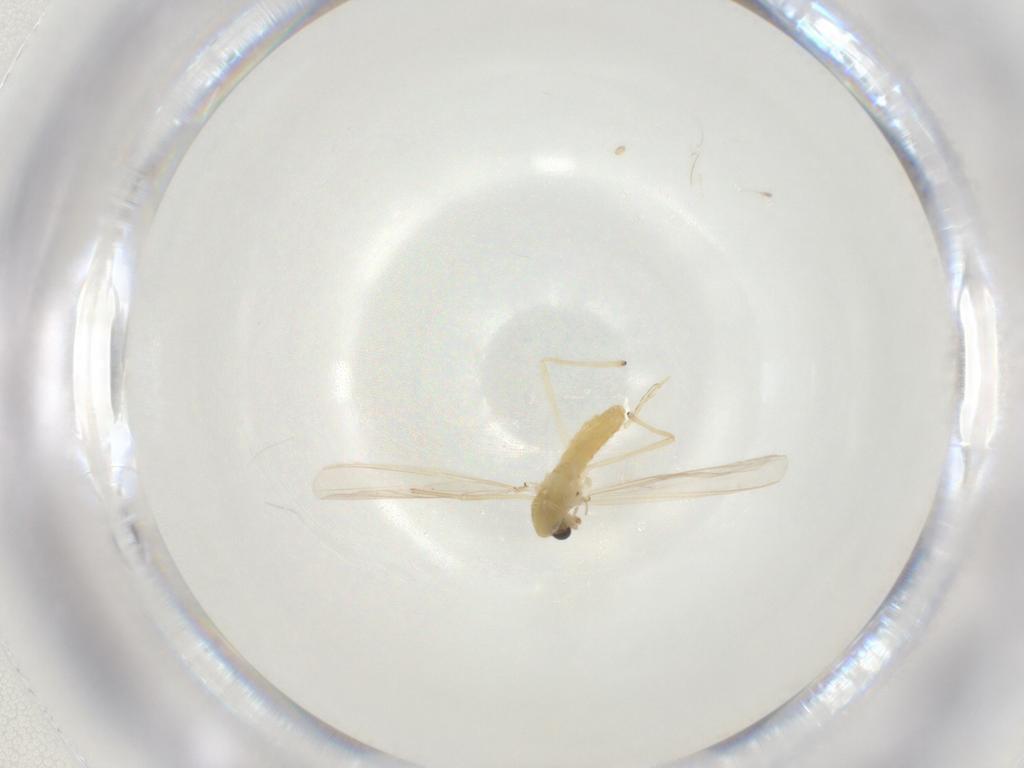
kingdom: Animalia
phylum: Arthropoda
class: Insecta
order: Diptera
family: Chironomidae
